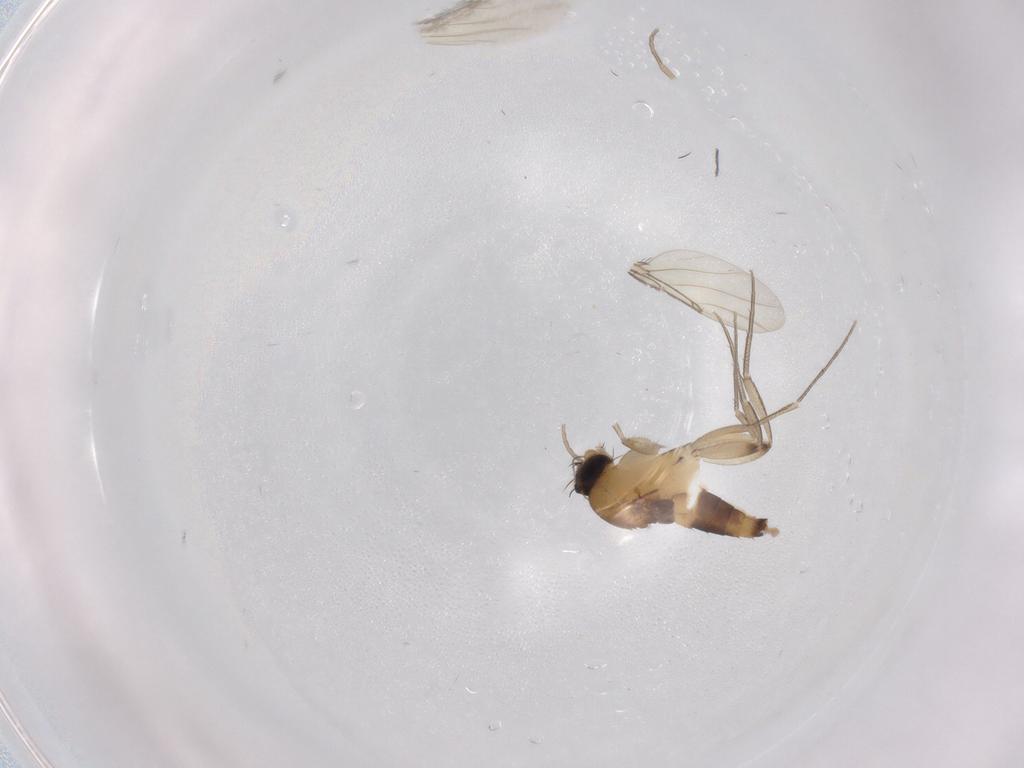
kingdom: Animalia
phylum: Arthropoda
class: Insecta
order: Diptera
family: Phoridae
